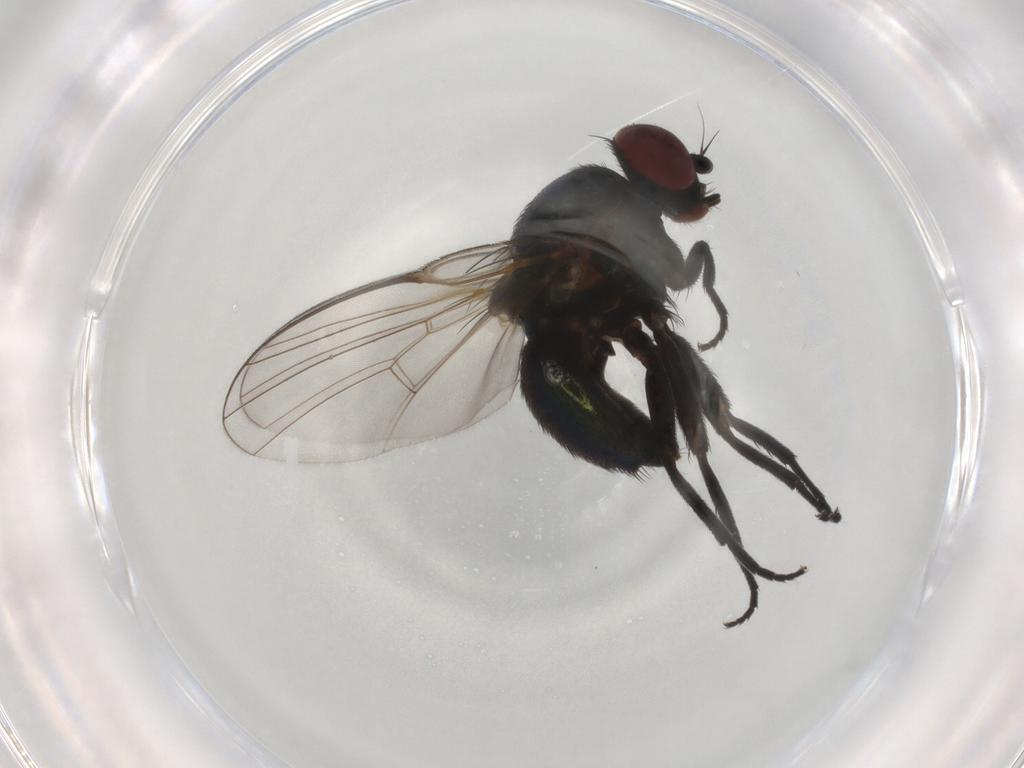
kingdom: Animalia
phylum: Arthropoda
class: Insecta
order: Diptera
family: Agromyzidae
